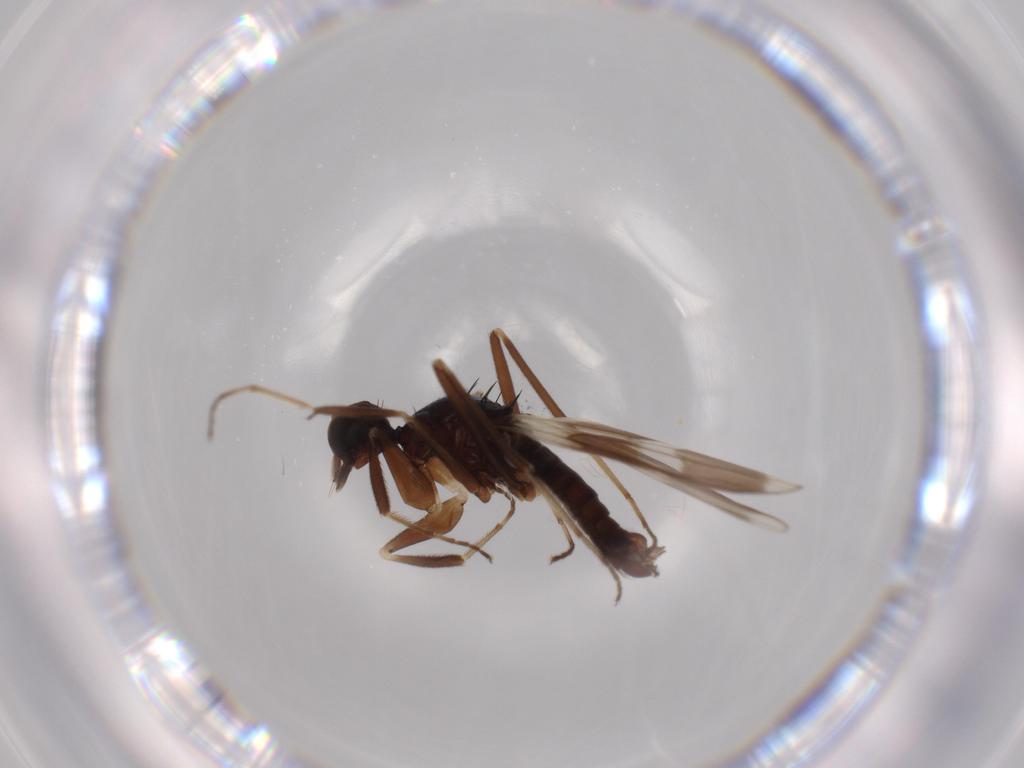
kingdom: Animalia
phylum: Arthropoda
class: Insecta
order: Diptera
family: Hybotidae
